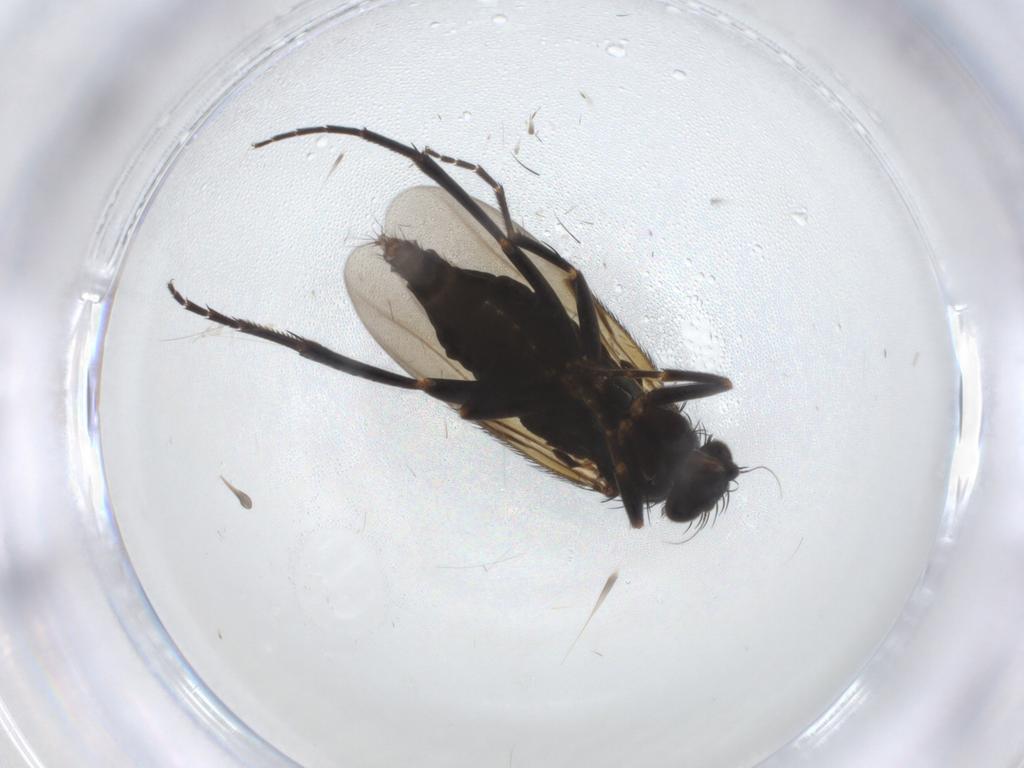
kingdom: Animalia
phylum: Arthropoda
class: Insecta
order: Diptera
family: Phoridae
